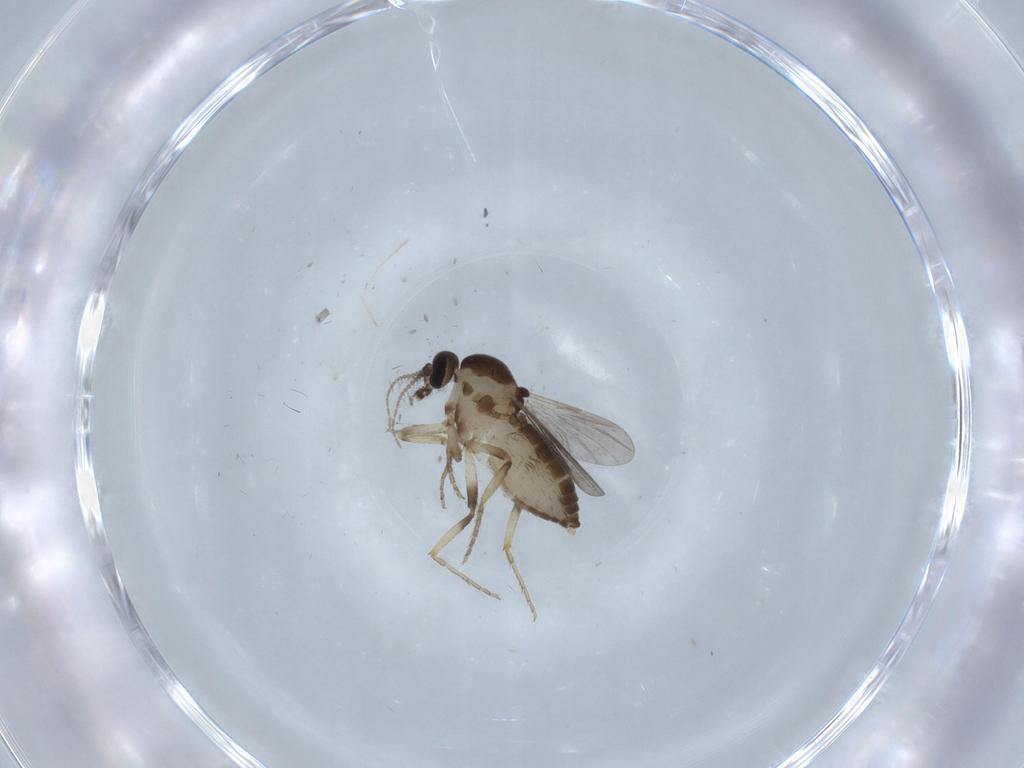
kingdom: Animalia
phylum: Arthropoda
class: Insecta
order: Diptera
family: Ceratopogonidae
